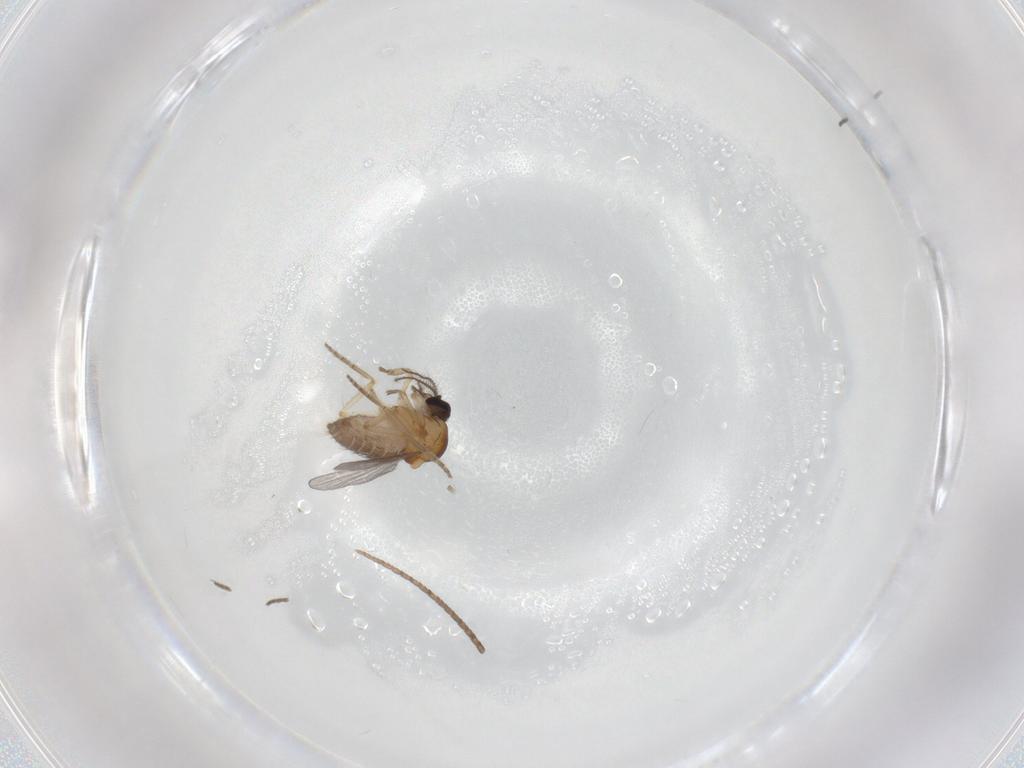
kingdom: Animalia
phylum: Arthropoda
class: Insecta
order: Diptera
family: Ceratopogonidae
